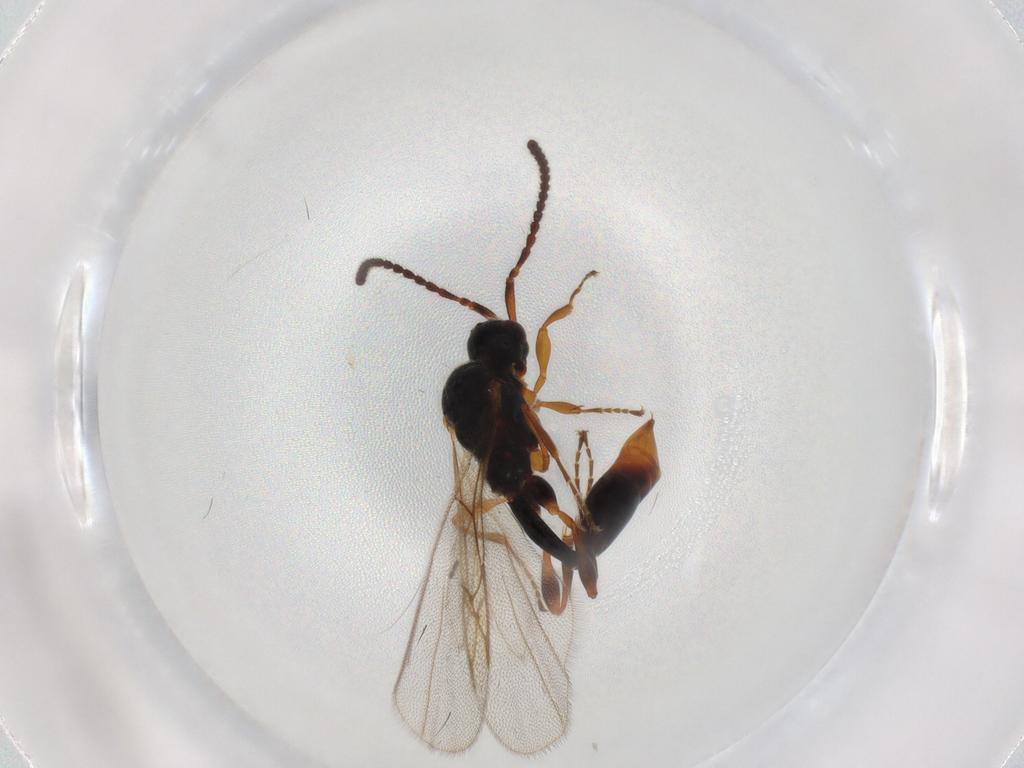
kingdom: Animalia
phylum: Arthropoda
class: Insecta
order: Hymenoptera
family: Diapriidae
